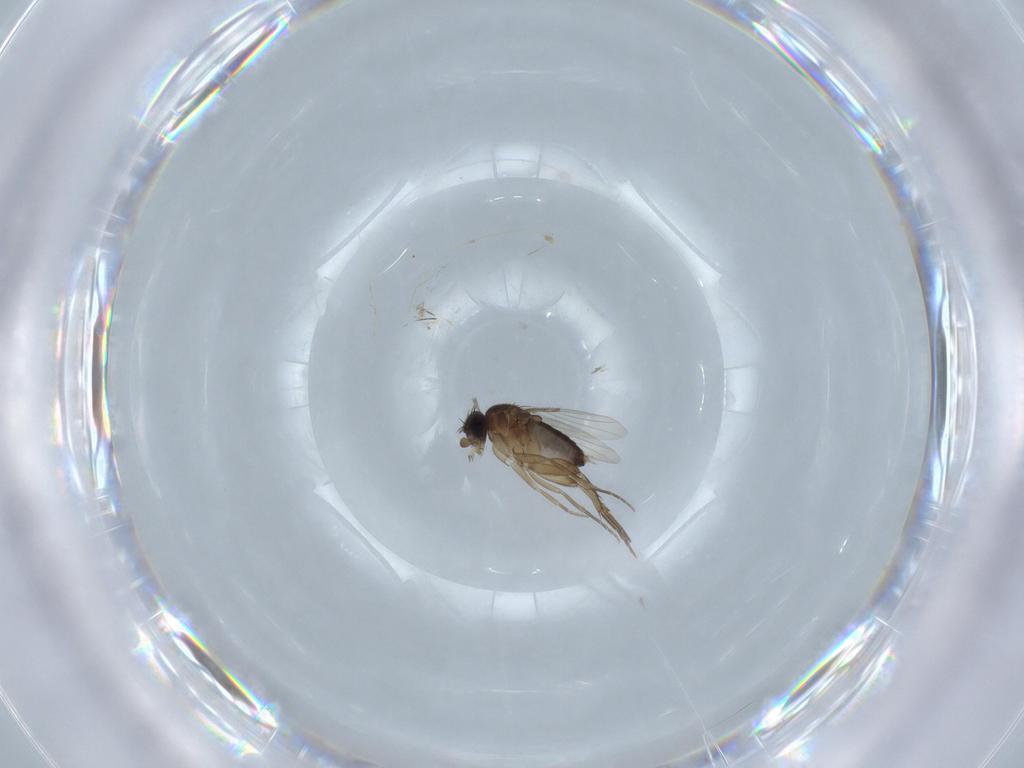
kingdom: Animalia
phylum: Arthropoda
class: Insecta
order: Diptera
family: Phoridae
